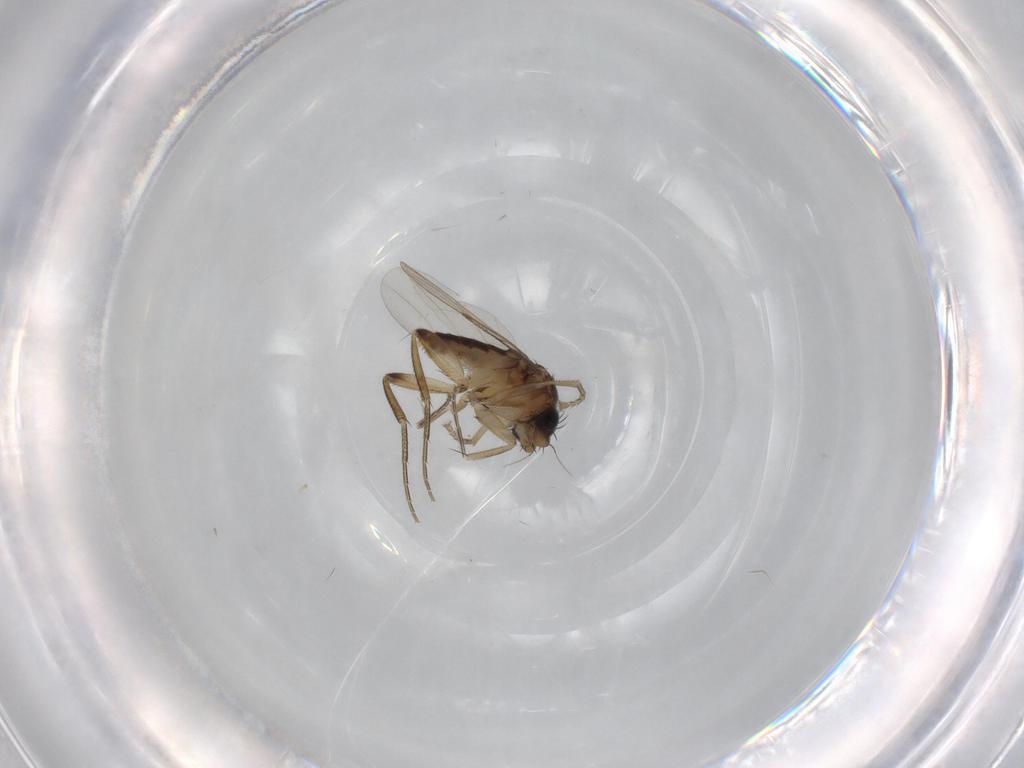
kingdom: Animalia
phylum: Arthropoda
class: Insecta
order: Diptera
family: Phoridae
